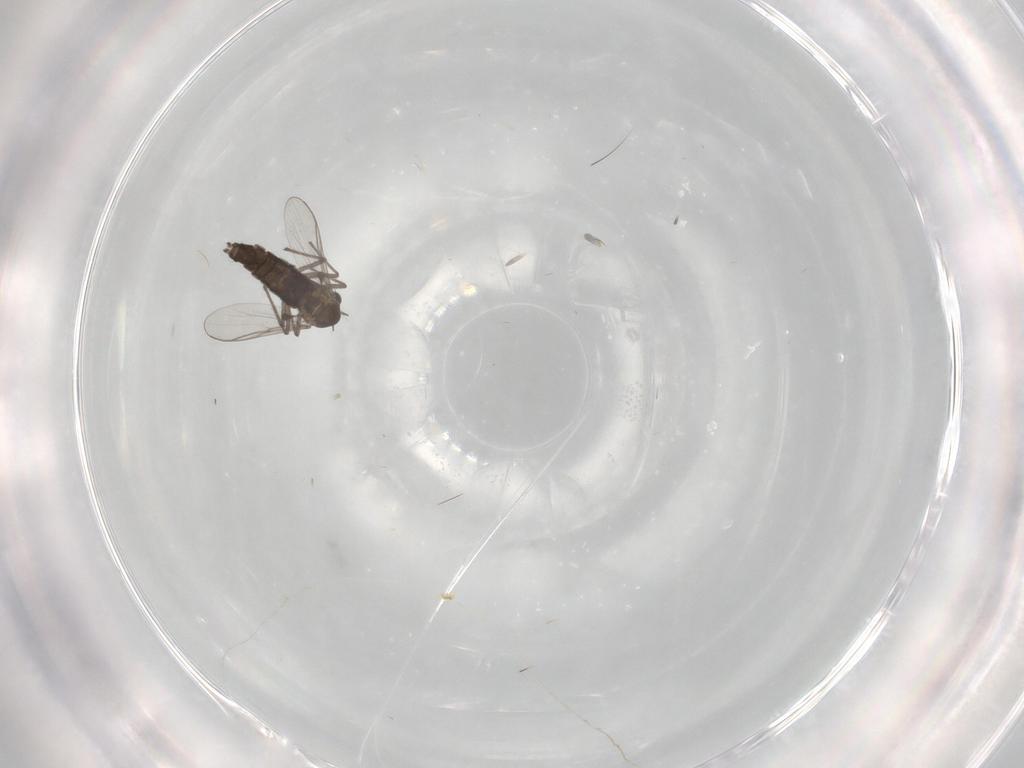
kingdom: Animalia
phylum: Arthropoda
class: Insecta
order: Diptera
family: Chironomidae
